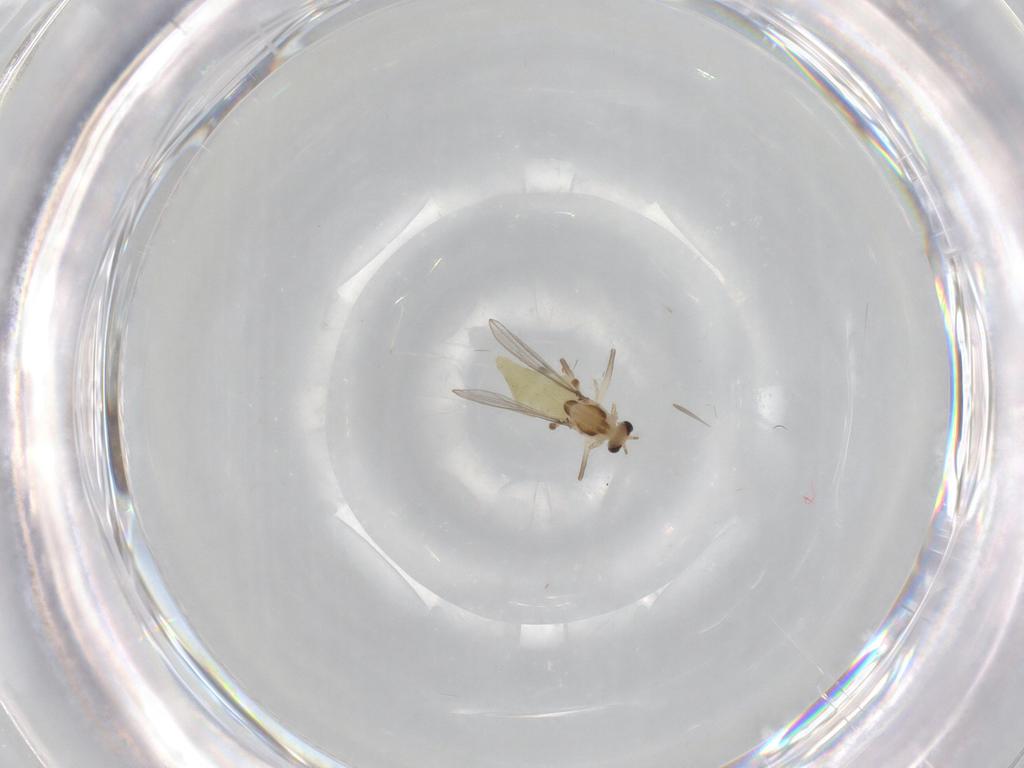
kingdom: Animalia
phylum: Arthropoda
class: Insecta
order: Diptera
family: Cecidomyiidae
